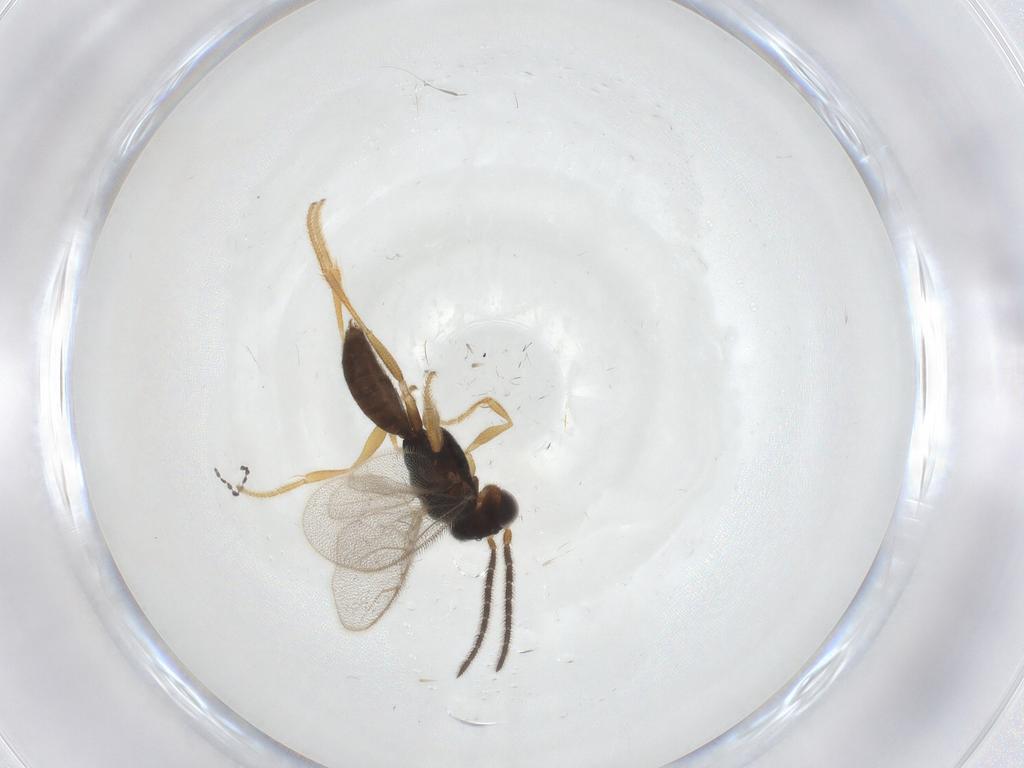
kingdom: Animalia
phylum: Arthropoda
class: Insecta
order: Hymenoptera
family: Dryinidae
